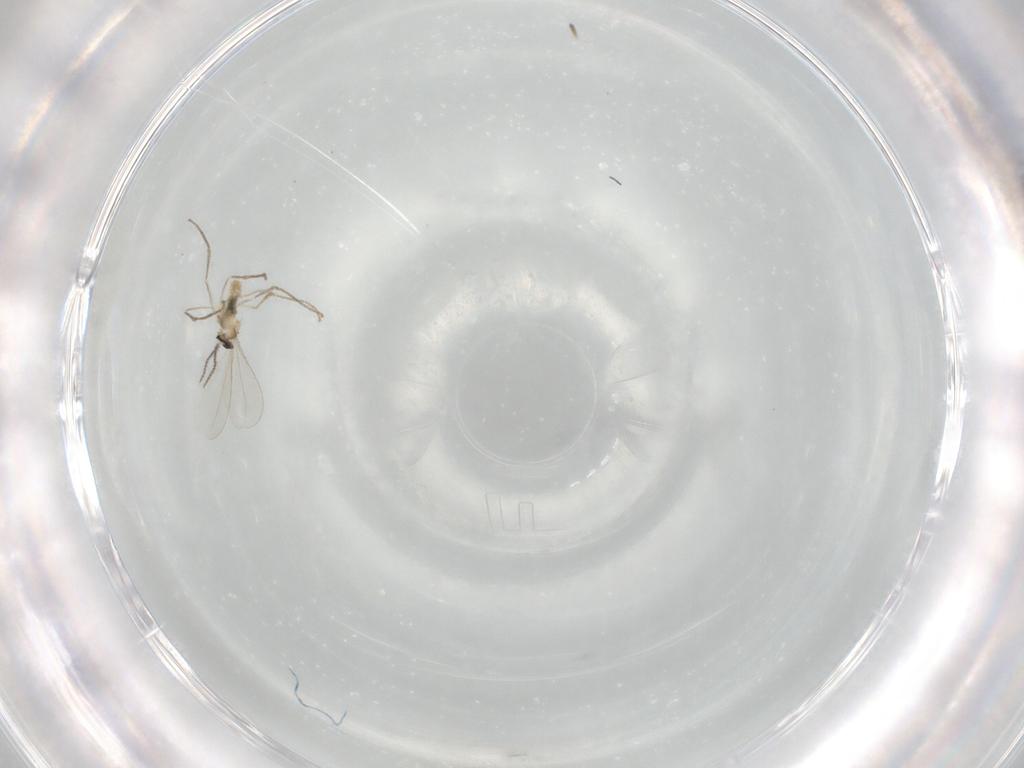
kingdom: Animalia
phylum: Arthropoda
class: Insecta
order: Diptera
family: Cecidomyiidae
